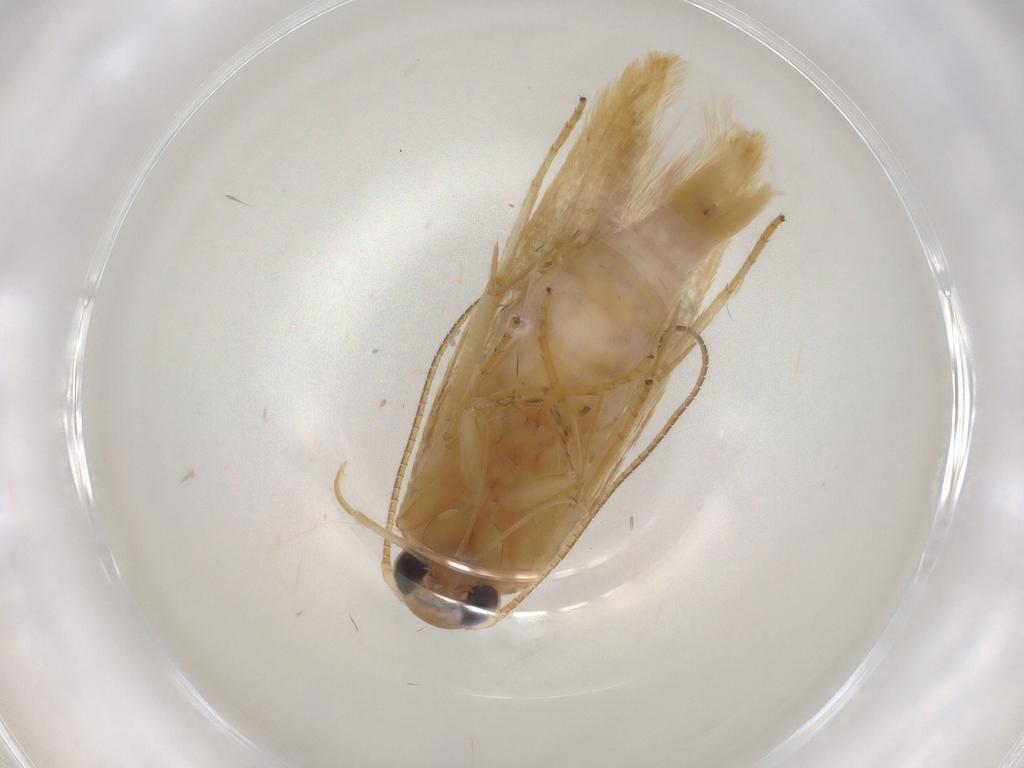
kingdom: Animalia
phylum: Arthropoda
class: Insecta
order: Lepidoptera
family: Stathmopodidae
